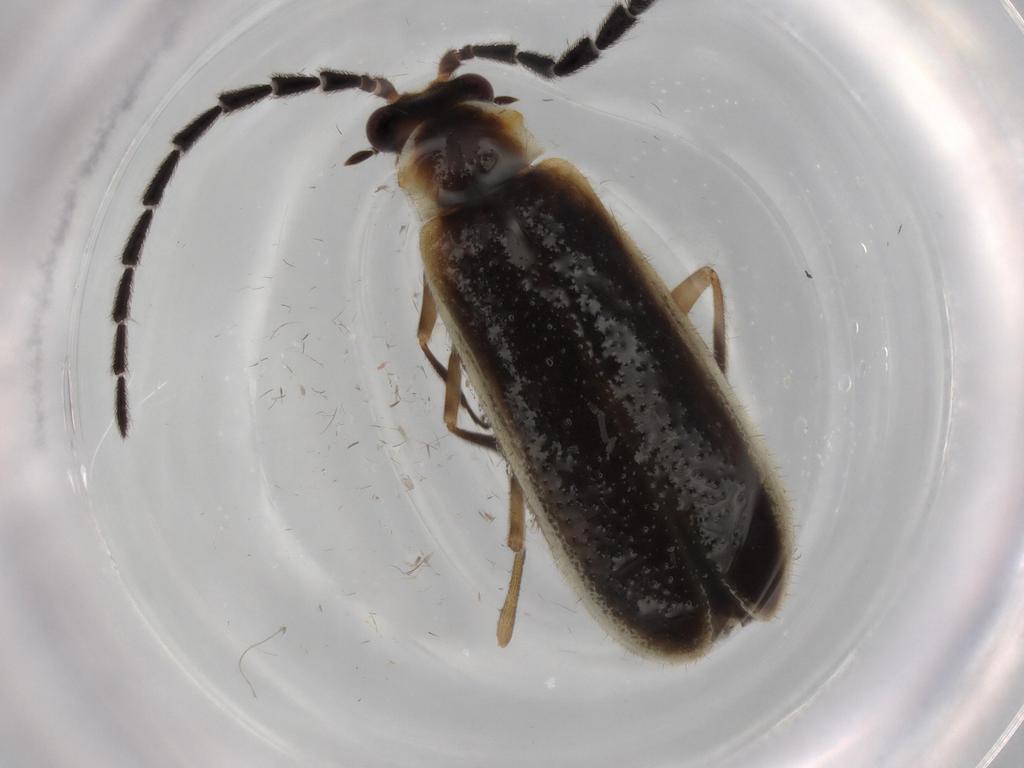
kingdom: Animalia
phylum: Arthropoda
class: Insecta
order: Coleoptera
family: Cantharidae
